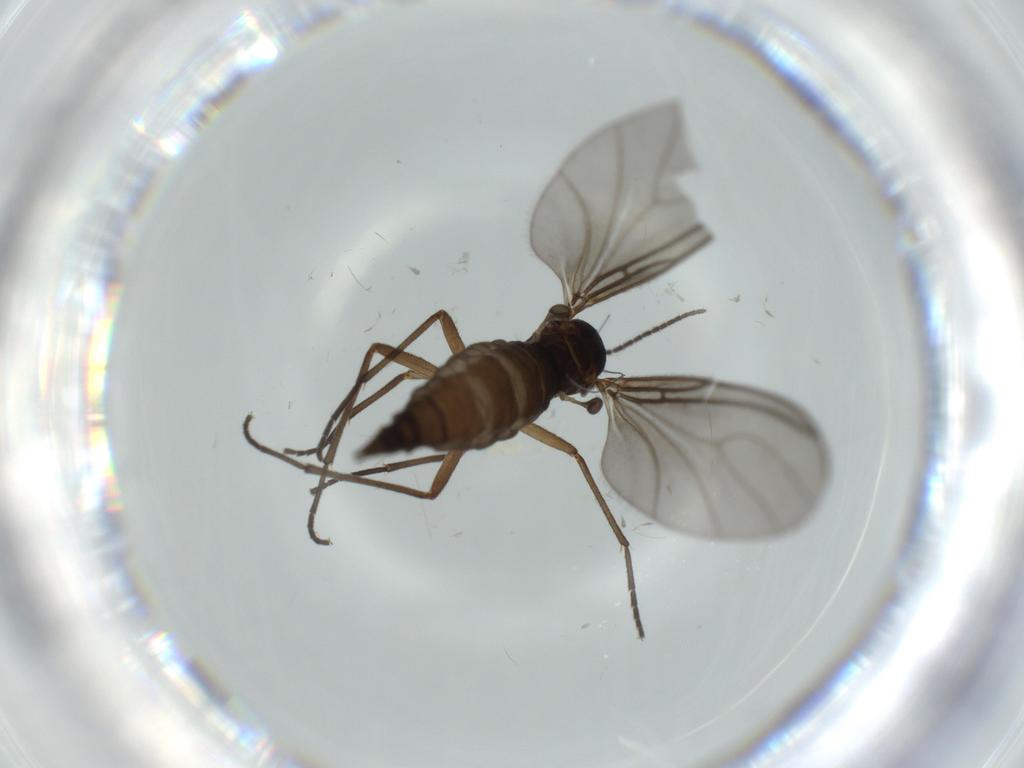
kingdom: Animalia
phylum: Arthropoda
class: Insecta
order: Diptera
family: Sciaridae
